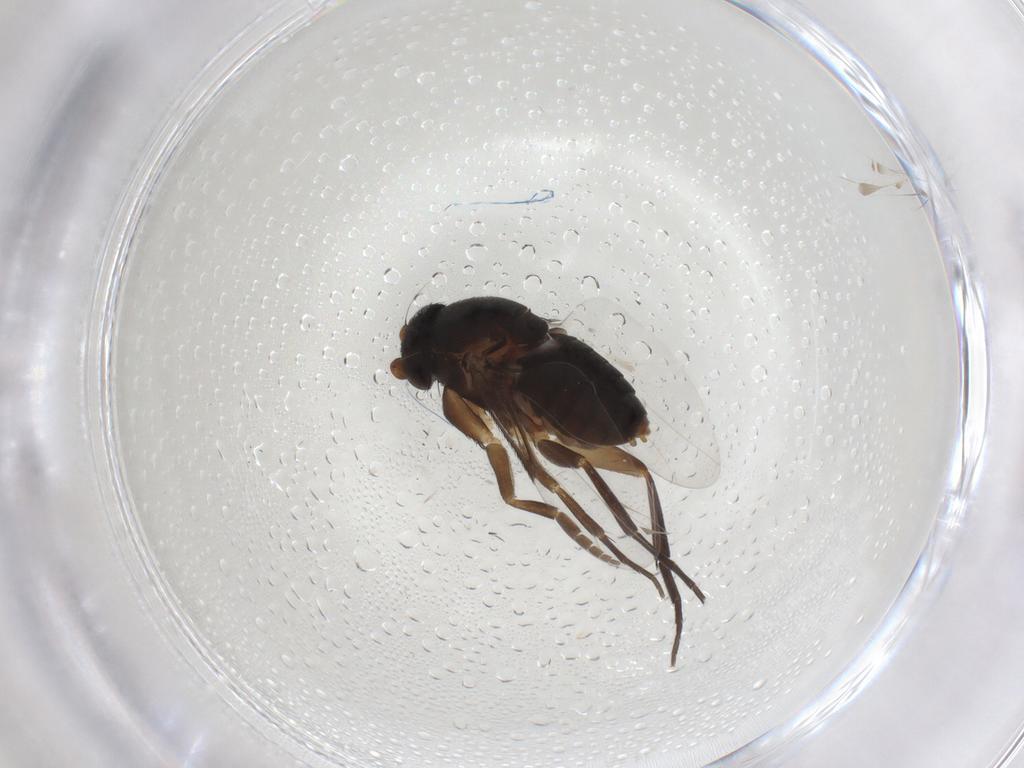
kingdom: Animalia
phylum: Arthropoda
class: Insecta
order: Diptera
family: Phoridae
